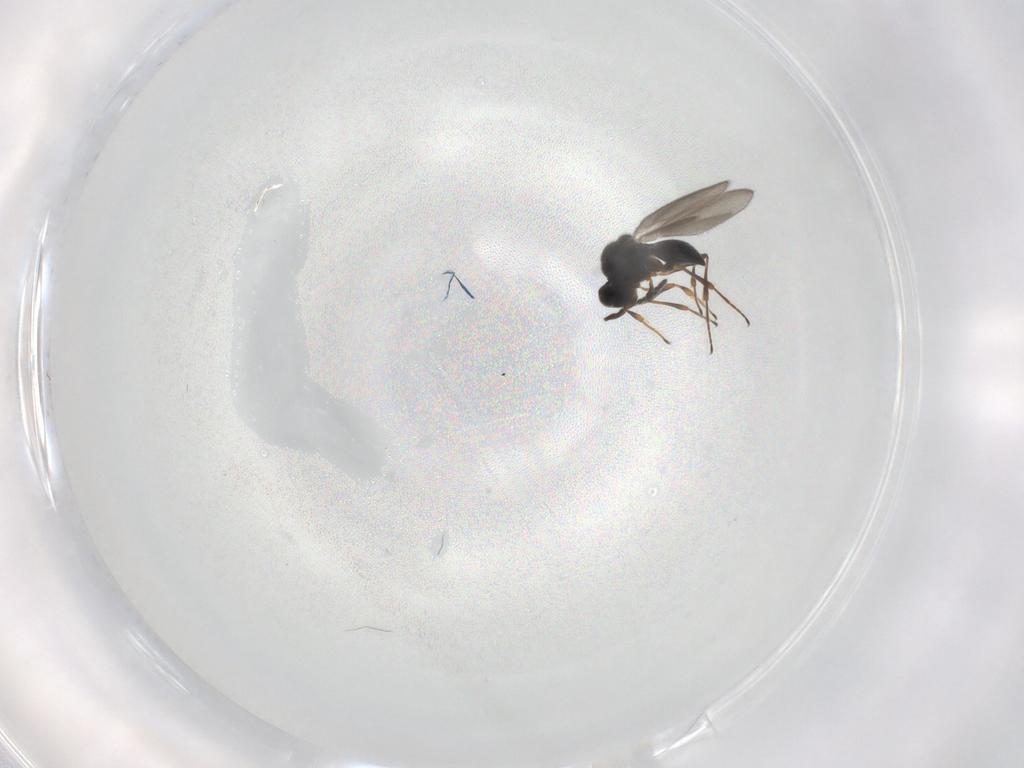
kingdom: Animalia
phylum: Arthropoda
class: Insecta
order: Hymenoptera
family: Platygastridae
